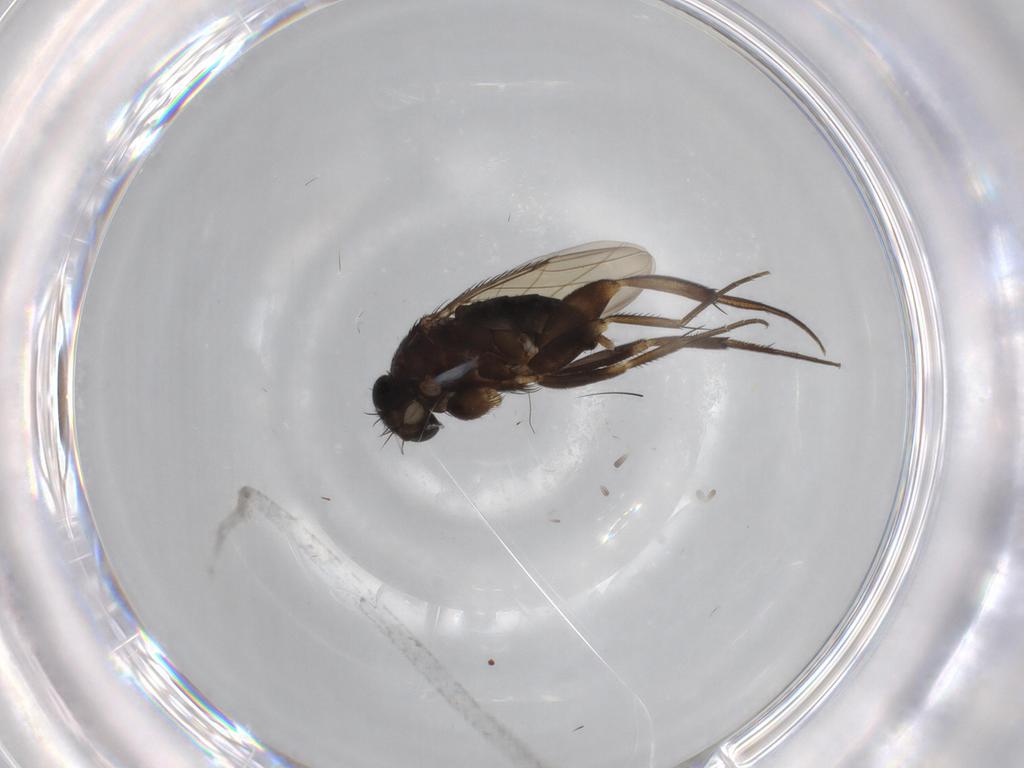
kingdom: Animalia
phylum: Arthropoda
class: Insecta
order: Diptera
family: Phoridae
